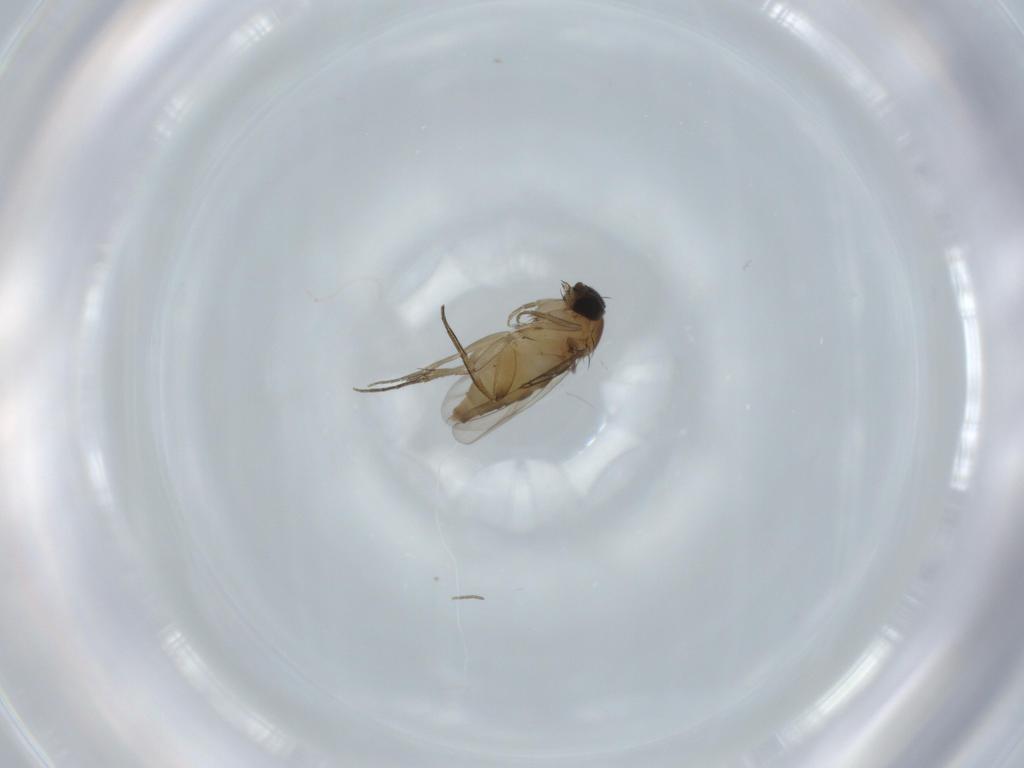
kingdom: Animalia
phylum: Arthropoda
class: Insecta
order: Diptera
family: Phoridae
